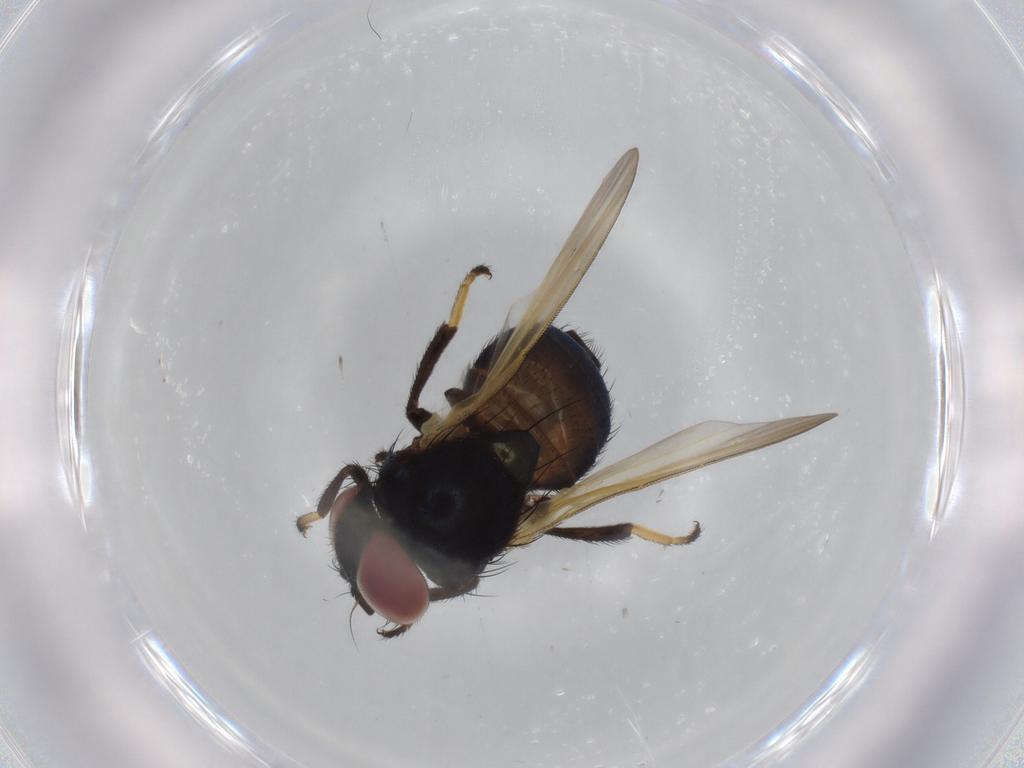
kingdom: Animalia
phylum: Arthropoda
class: Insecta
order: Diptera
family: Lonchaeidae
